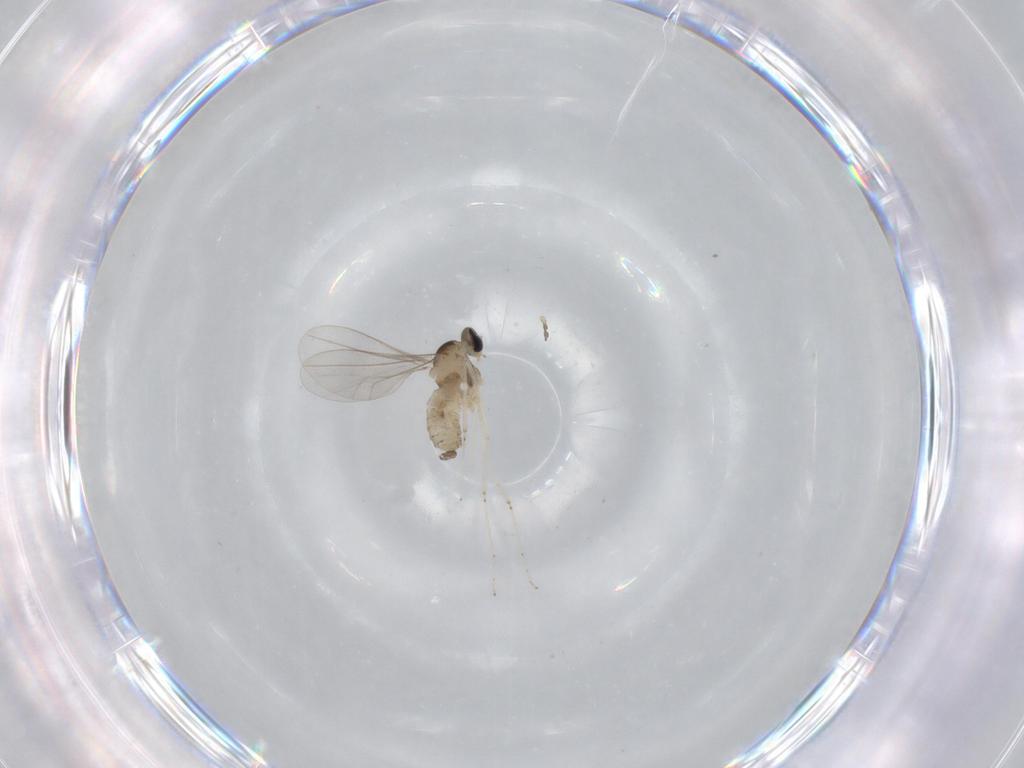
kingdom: Animalia
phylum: Arthropoda
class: Insecta
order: Diptera
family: Cecidomyiidae
